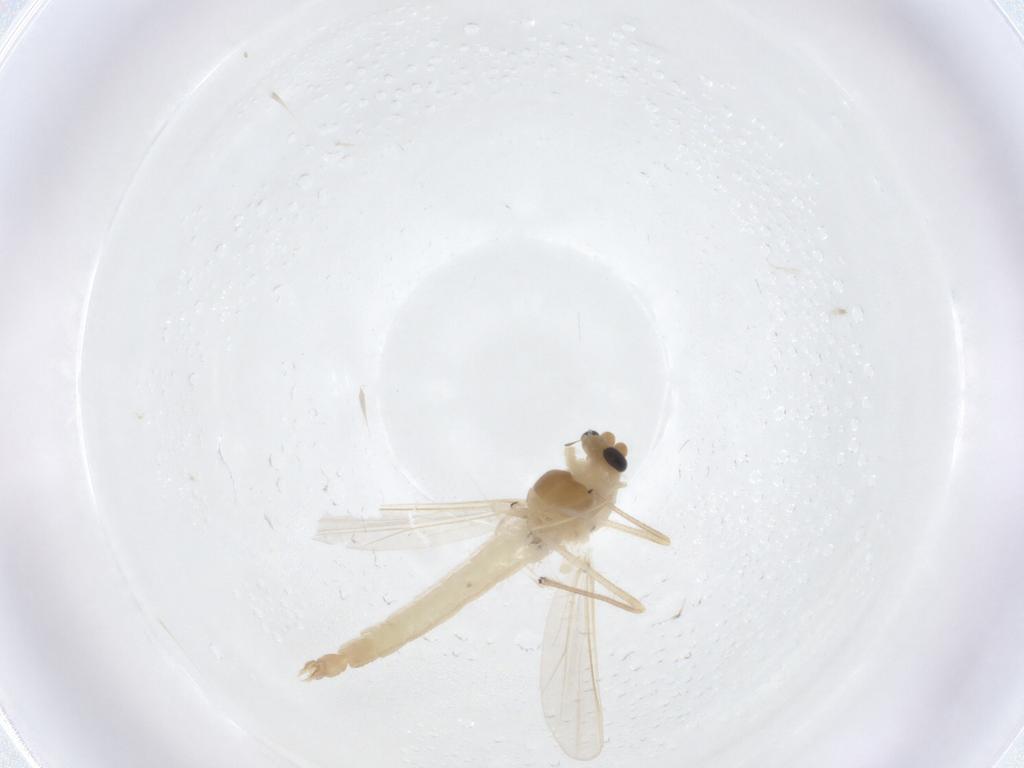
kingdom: Animalia
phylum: Arthropoda
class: Insecta
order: Diptera
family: Chironomidae
